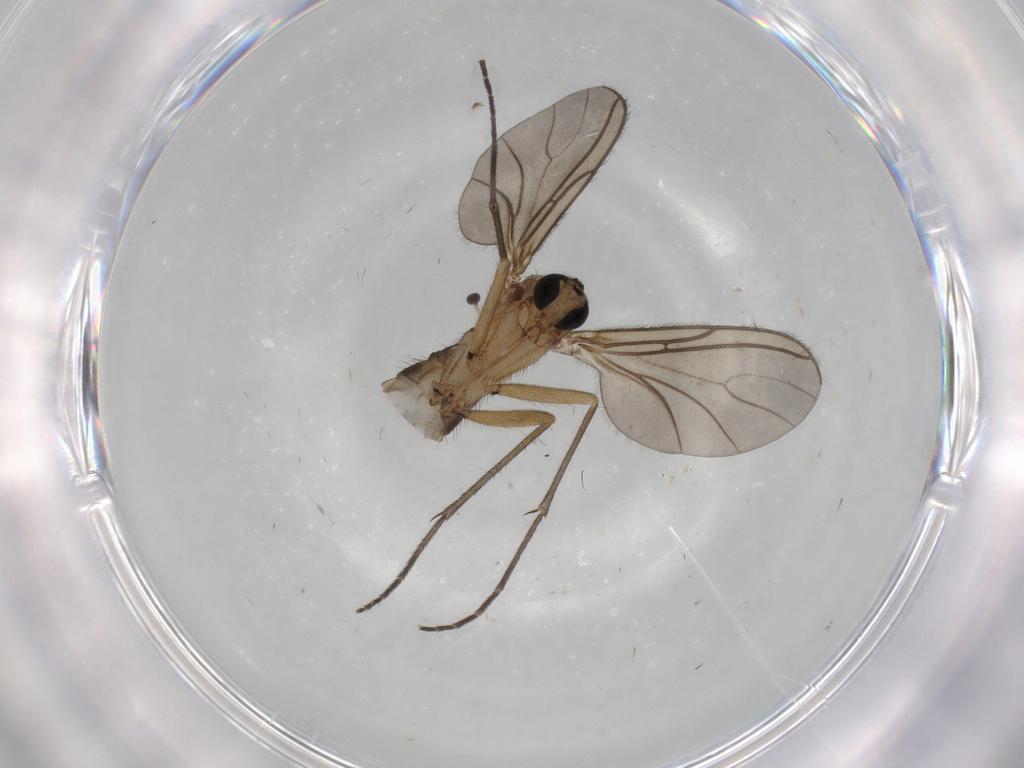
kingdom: Animalia
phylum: Arthropoda
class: Insecta
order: Diptera
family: Sciaridae
